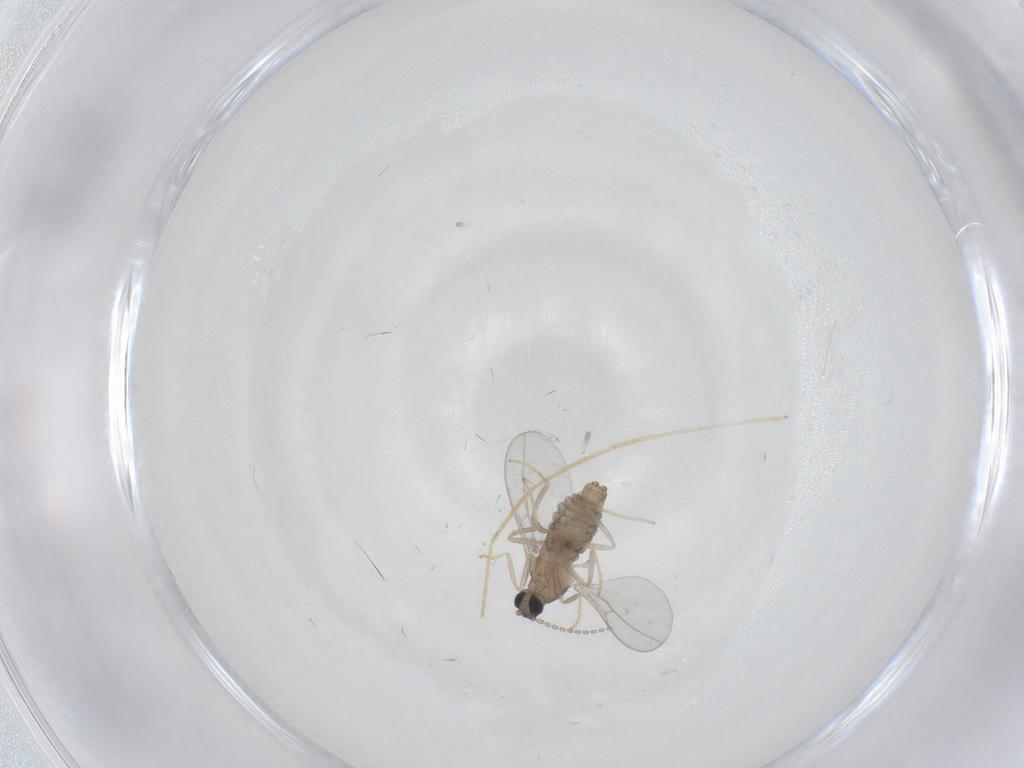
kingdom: Animalia
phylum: Arthropoda
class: Insecta
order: Diptera
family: Cecidomyiidae
